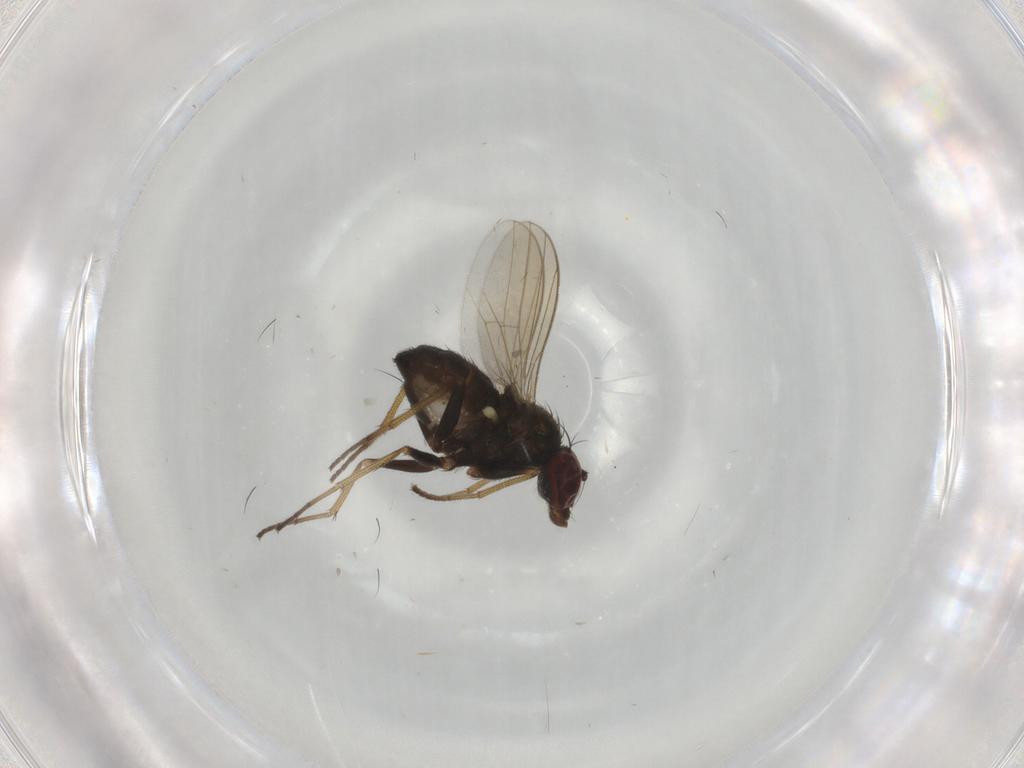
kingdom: Animalia
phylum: Arthropoda
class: Insecta
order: Diptera
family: Dolichopodidae
